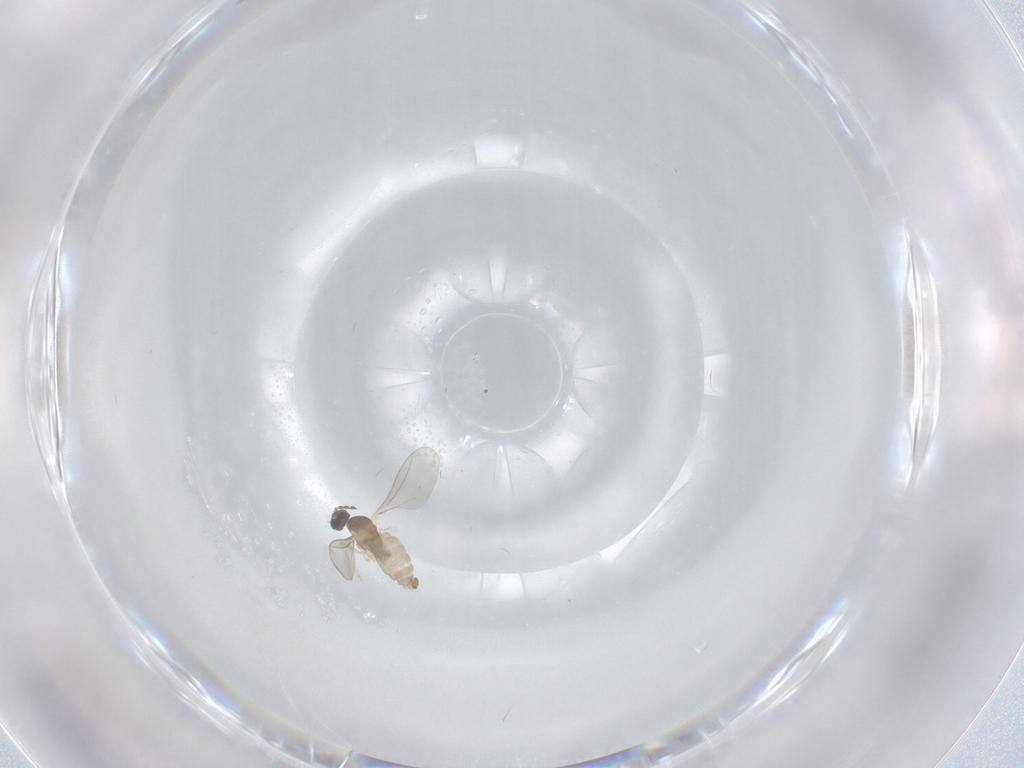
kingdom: Animalia
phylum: Arthropoda
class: Insecta
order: Diptera
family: Cecidomyiidae
